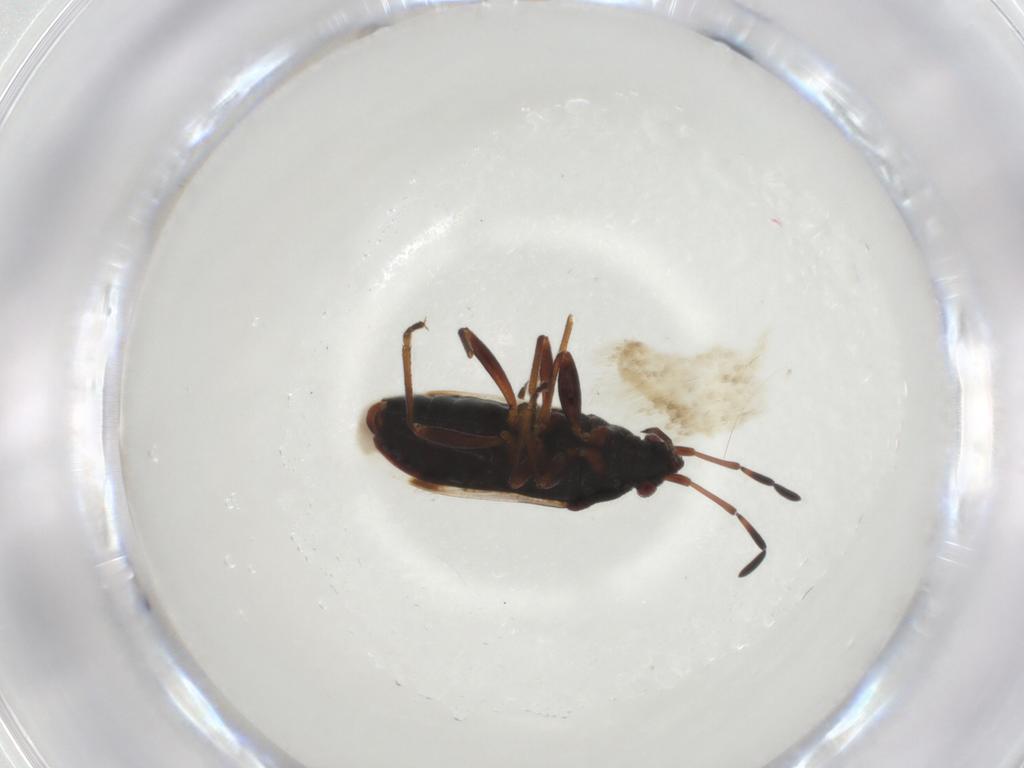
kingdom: Animalia
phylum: Arthropoda
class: Insecta
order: Hemiptera
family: Rhyparochromidae
